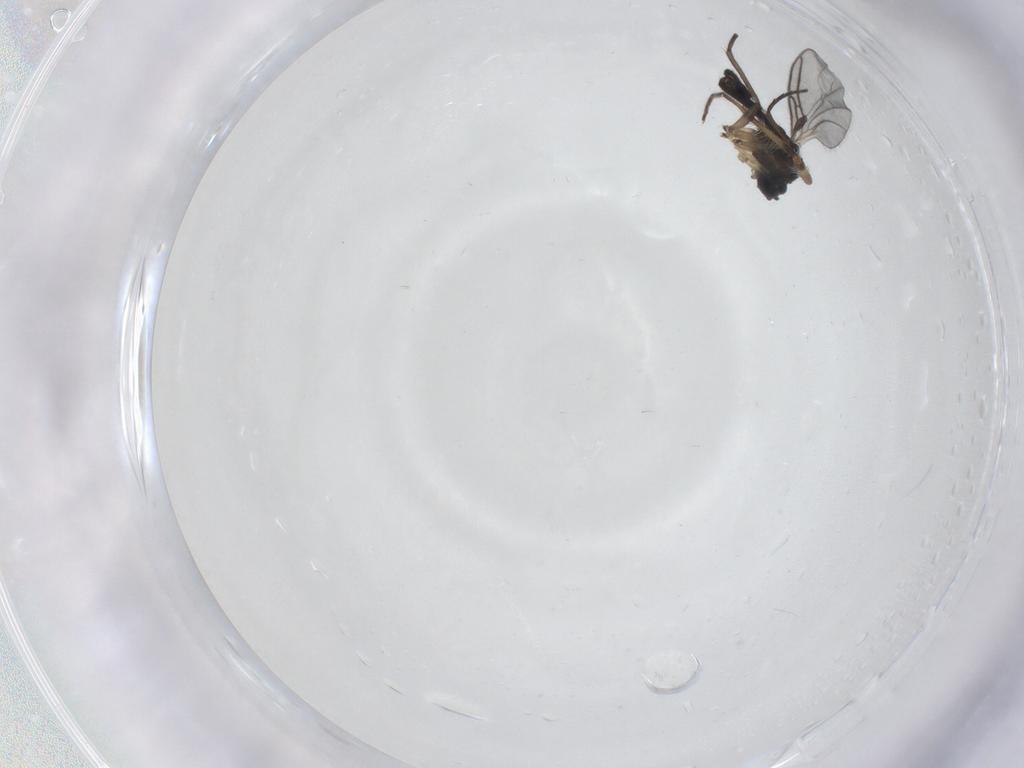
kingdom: Animalia
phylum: Arthropoda
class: Insecta
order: Diptera
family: Sciaridae
